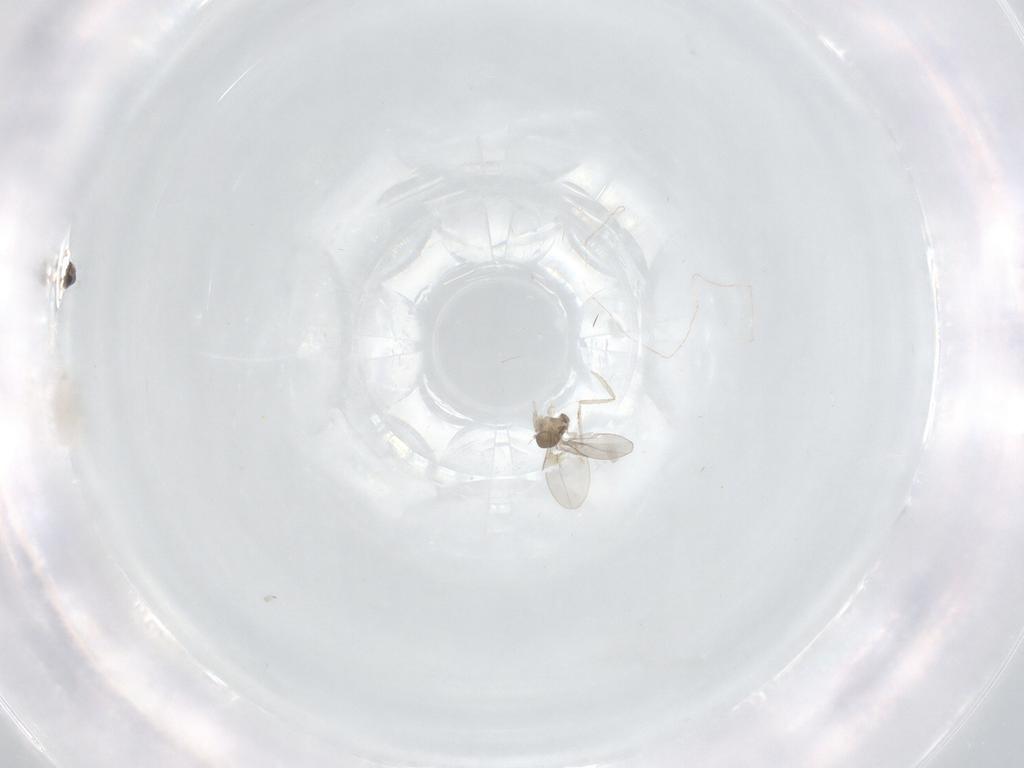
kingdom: Animalia
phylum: Arthropoda
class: Insecta
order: Diptera
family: Cecidomyiidae
